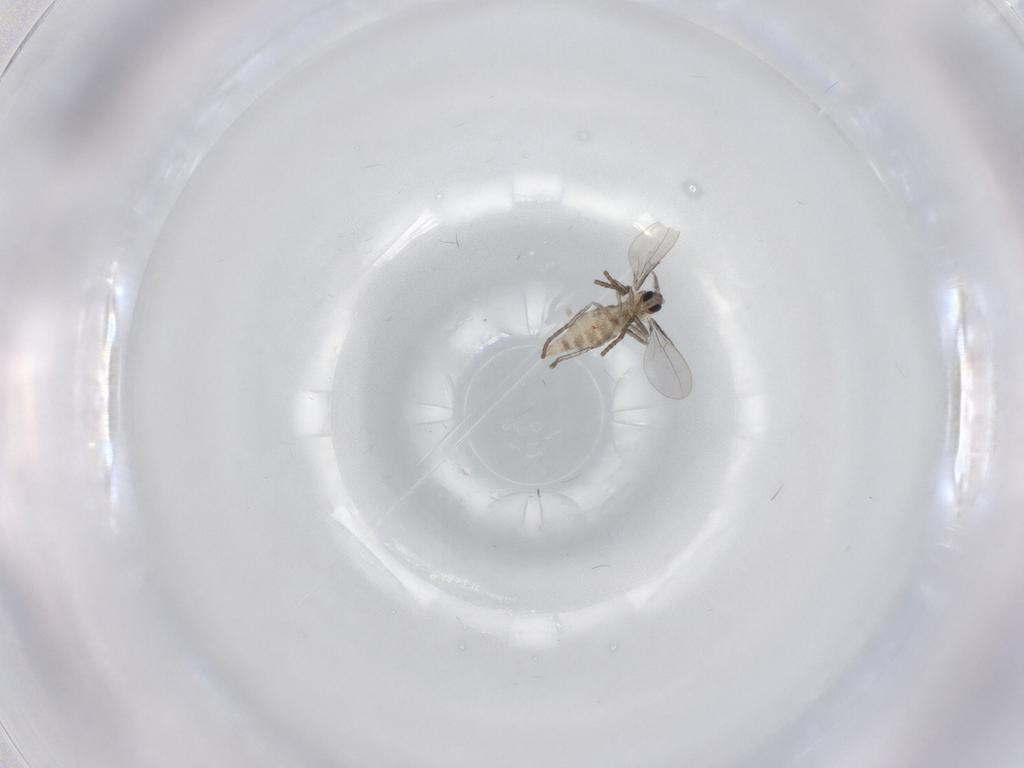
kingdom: Animalia
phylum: Arthropoda
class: Insecta
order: Diptera
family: Cecidomyiidae
